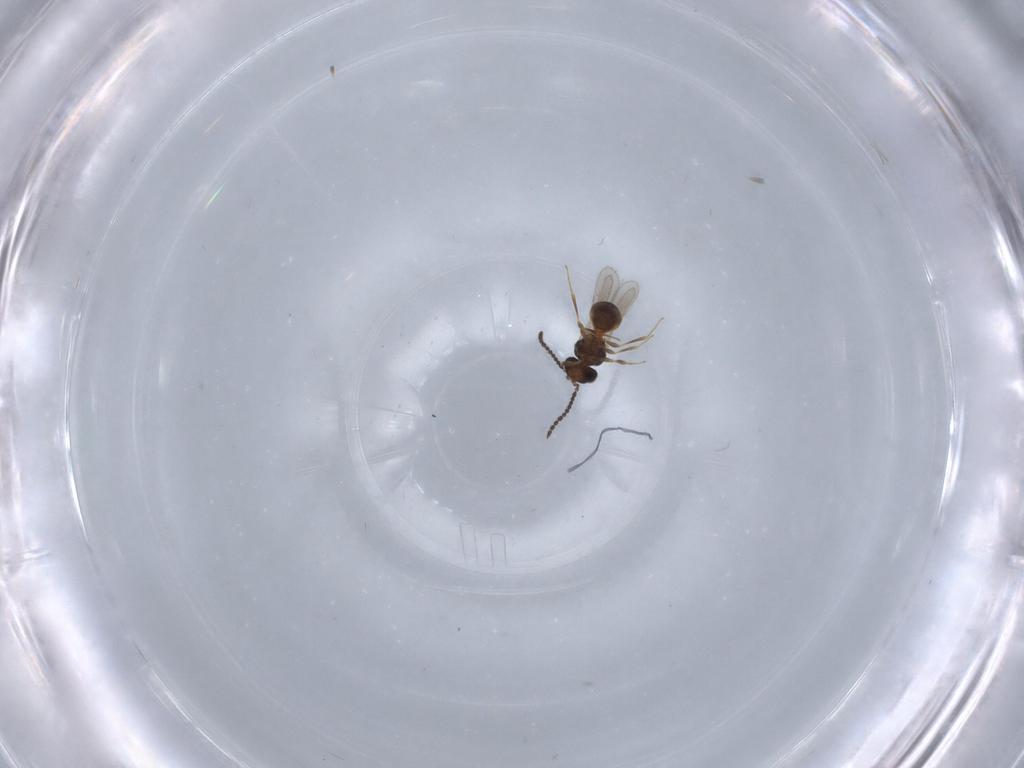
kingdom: Animalia
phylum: Arthropoda
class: Insecta
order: Hymenoptera
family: Scelionidae
